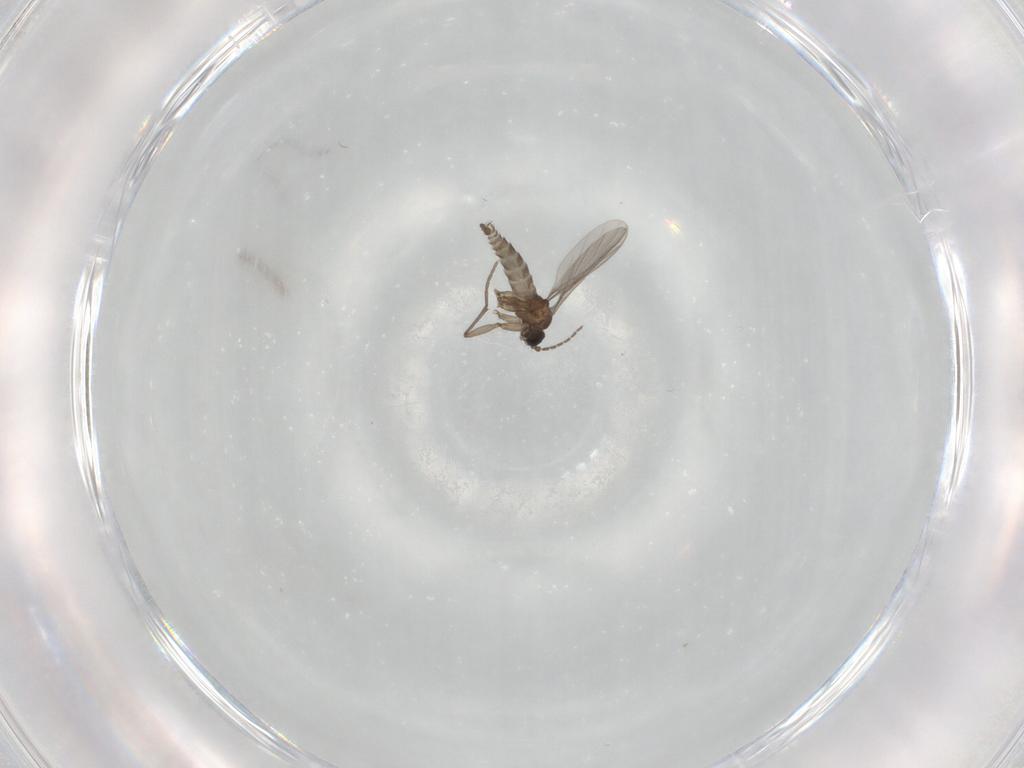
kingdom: Animalia
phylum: Arthropoda
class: Insecta
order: Diptera
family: Sciaridae
